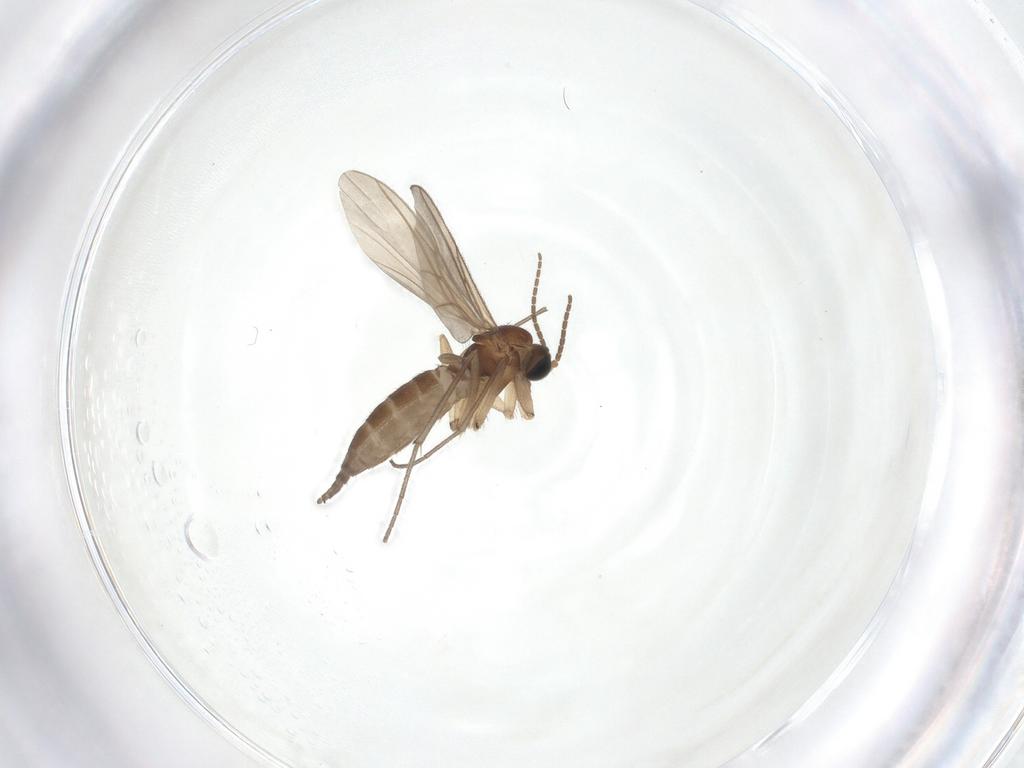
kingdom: Animalia
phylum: Arthropoda
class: Insecta
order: Diptera
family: Sciaridae
